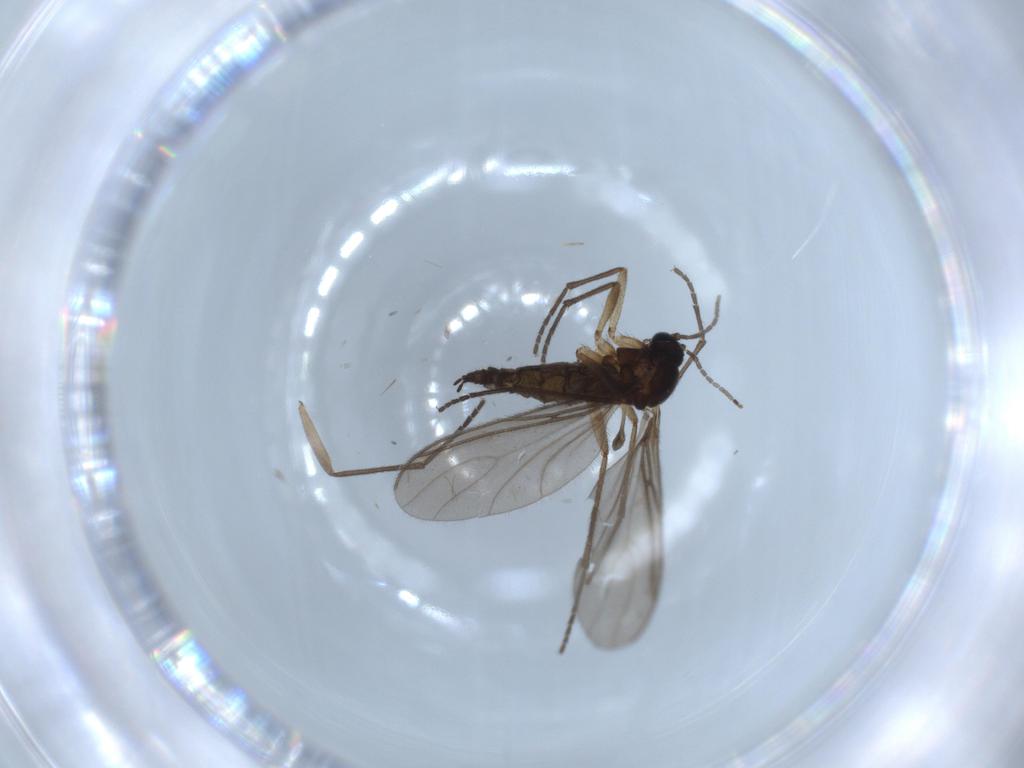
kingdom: Animalia
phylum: Arthropoda
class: Insecta
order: Diptera
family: Sciaridae
